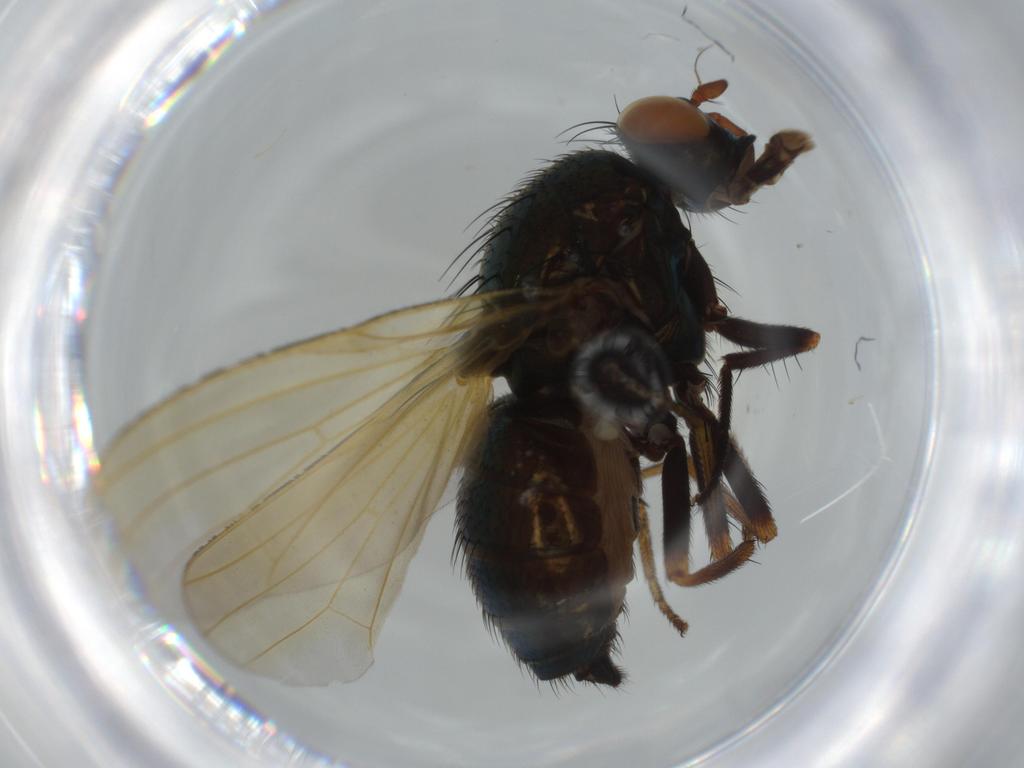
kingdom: Animalia
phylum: Arthropoda
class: Insecta
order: Diptera
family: Lauxaniidae
